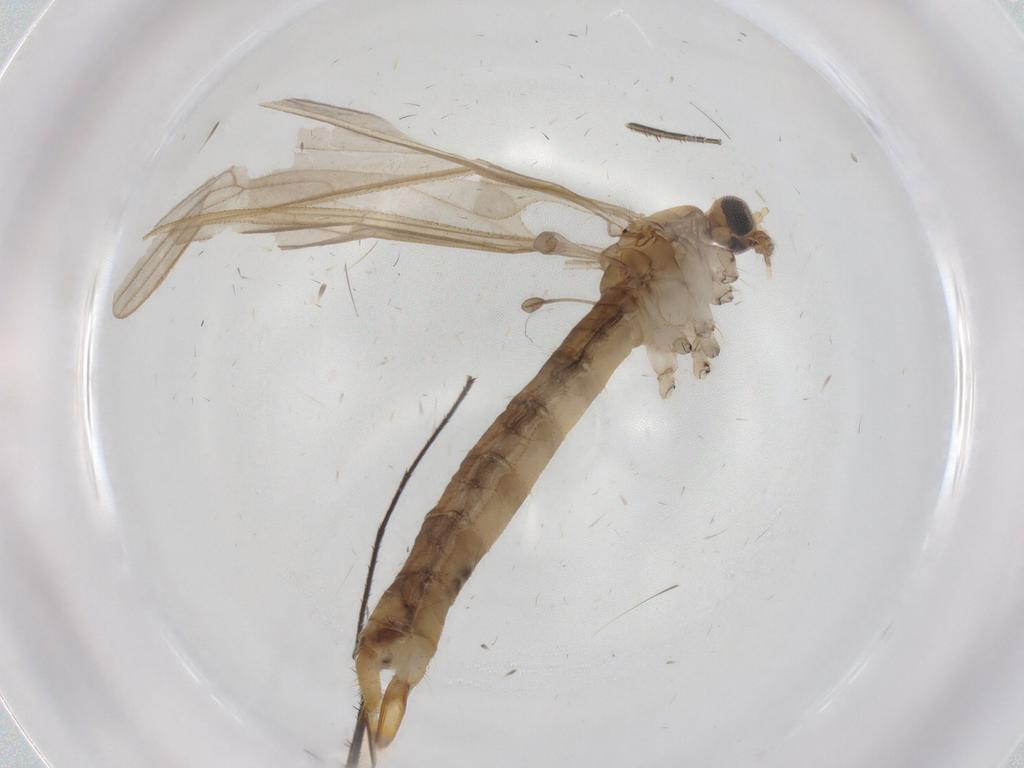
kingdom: Animalia
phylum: Arthropoda
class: Insecta
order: Diptera
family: Limoniidae
